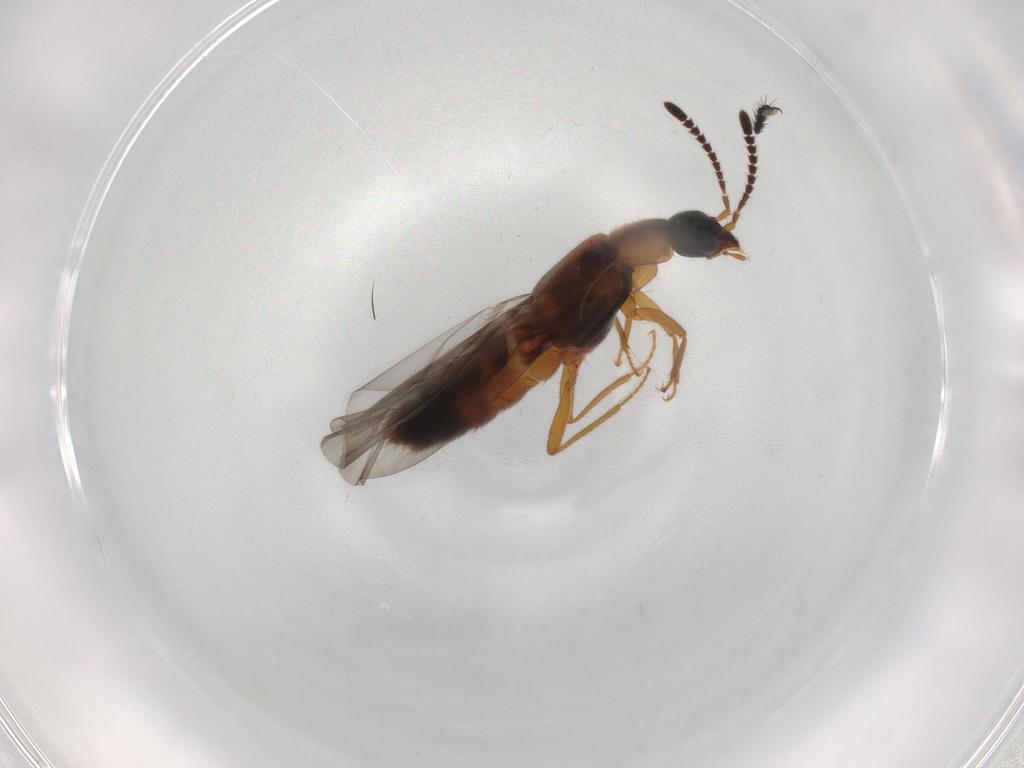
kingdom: Animalia
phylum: Arthropoda
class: Insecta
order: Coleoptera
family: Staphylinidae
